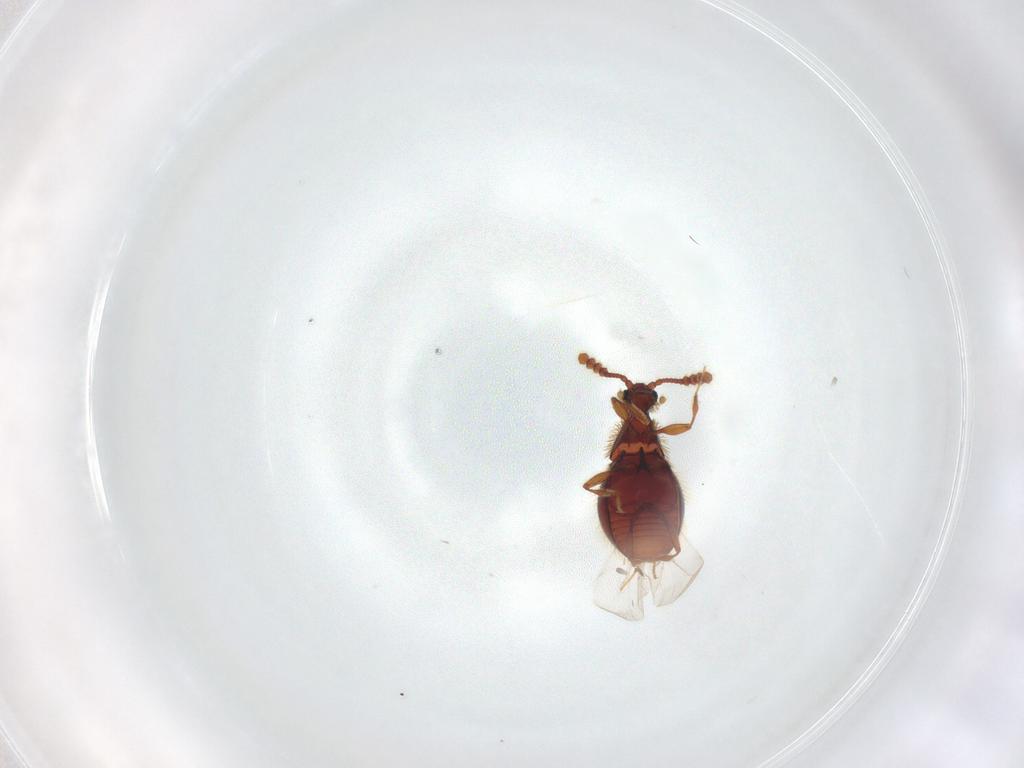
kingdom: Animalia
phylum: Arthropoda
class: Insecta
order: Coleoptera
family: Staphylinidae
